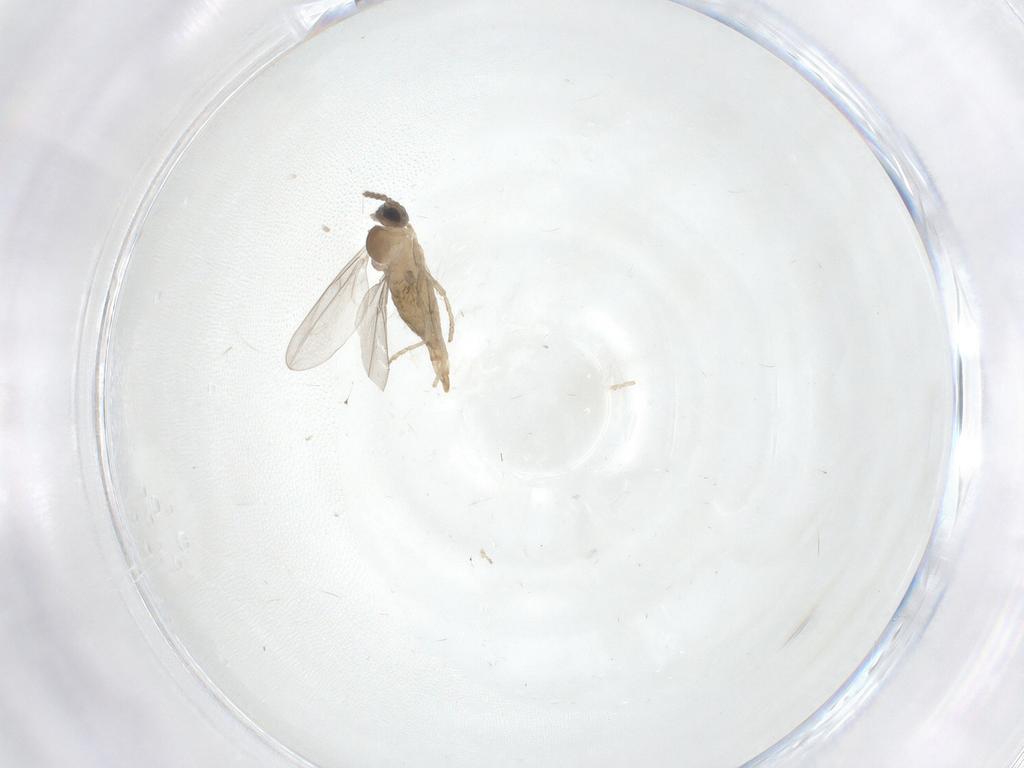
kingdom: Animalia
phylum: Arthropoda
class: Insecta
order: Diptera
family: Cecidomyiidae
